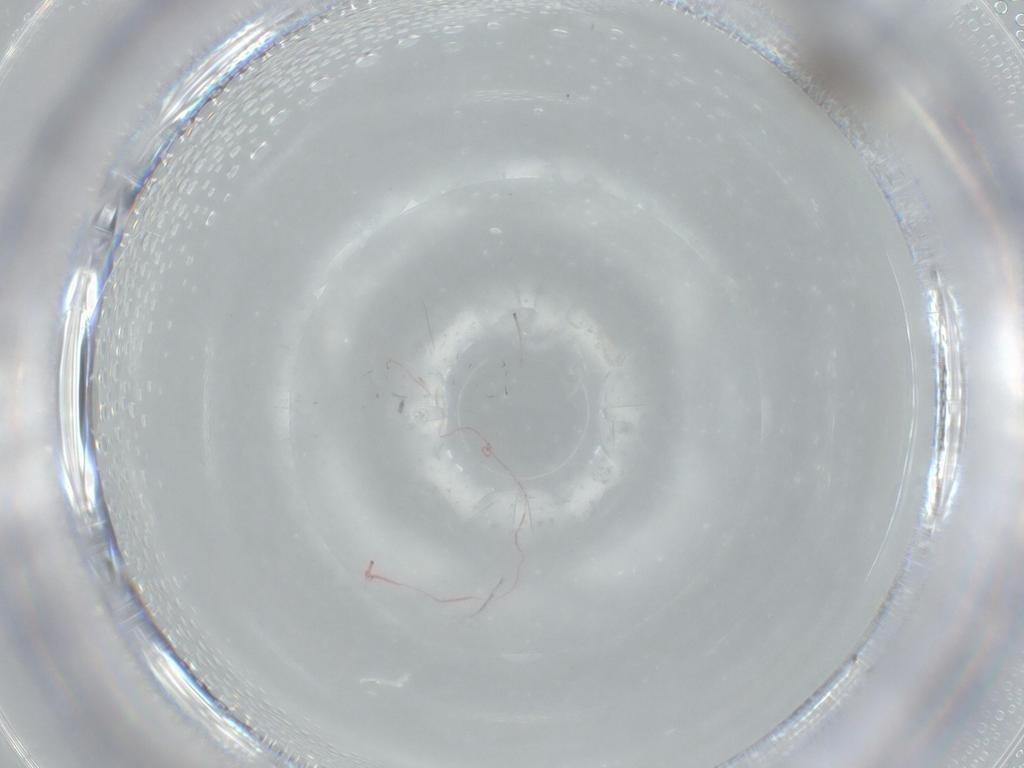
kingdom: Animalia
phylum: Arthropoda
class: Insecta
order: Diptera
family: Cecidomyiidae
